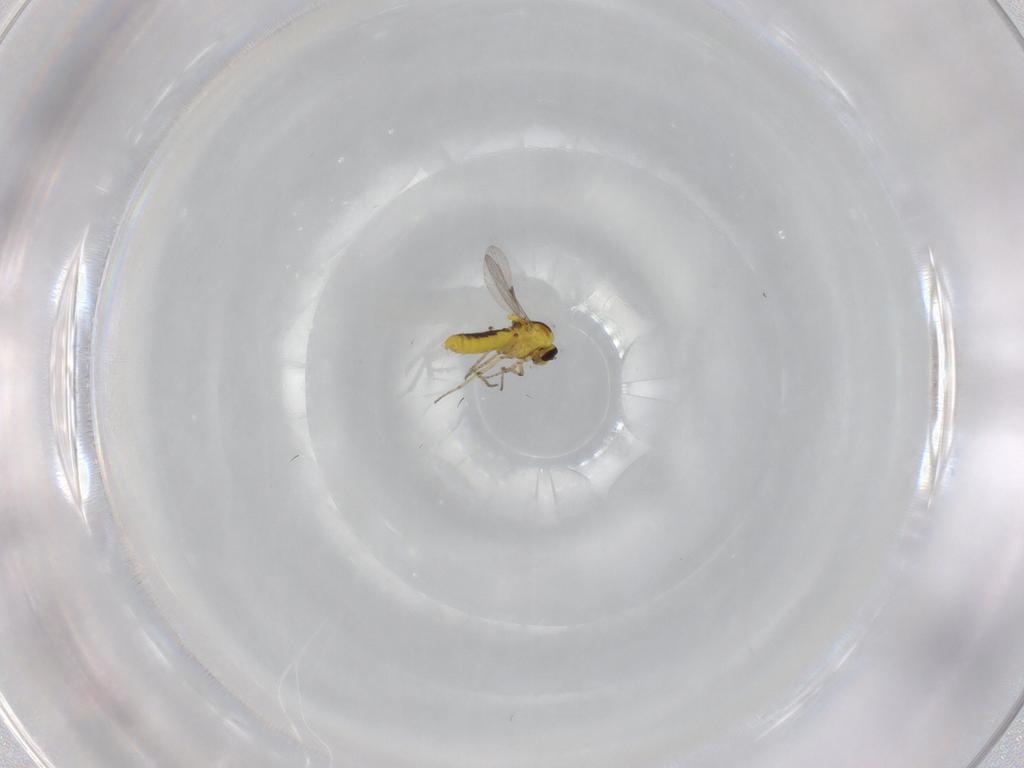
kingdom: Animalia
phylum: Arthropoda
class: Insecta
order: Diptera
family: Ceratopogonidae
